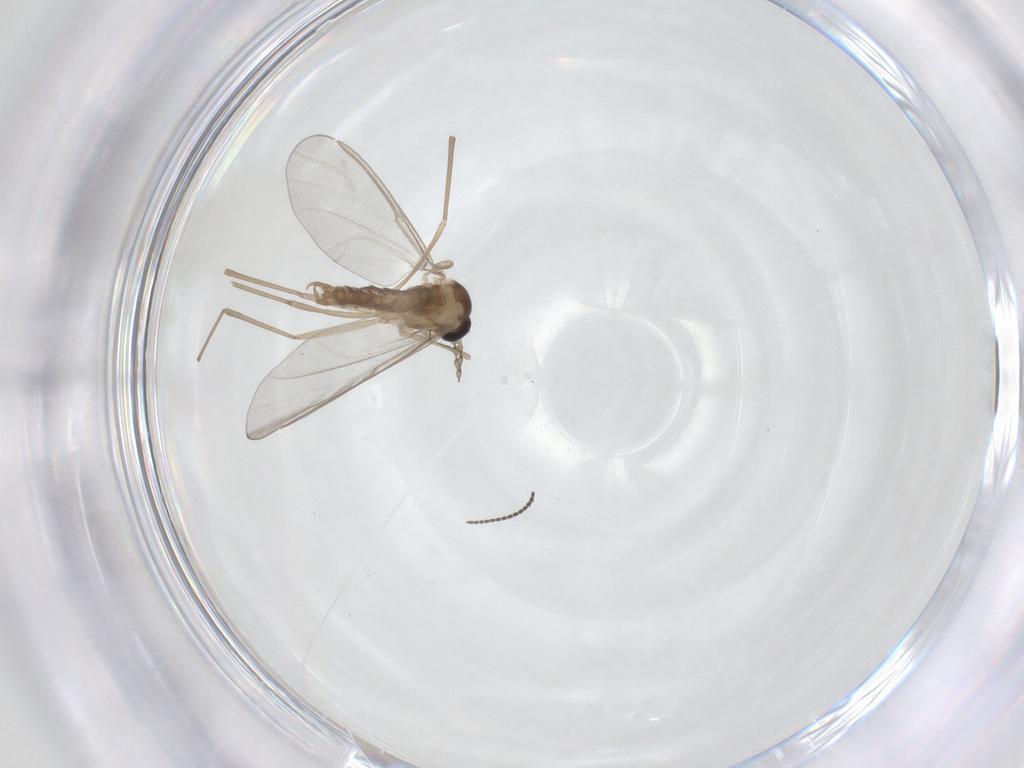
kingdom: Animalia
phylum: Arthropoda
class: Insecta
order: Diptera
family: Cecidomyiidae
